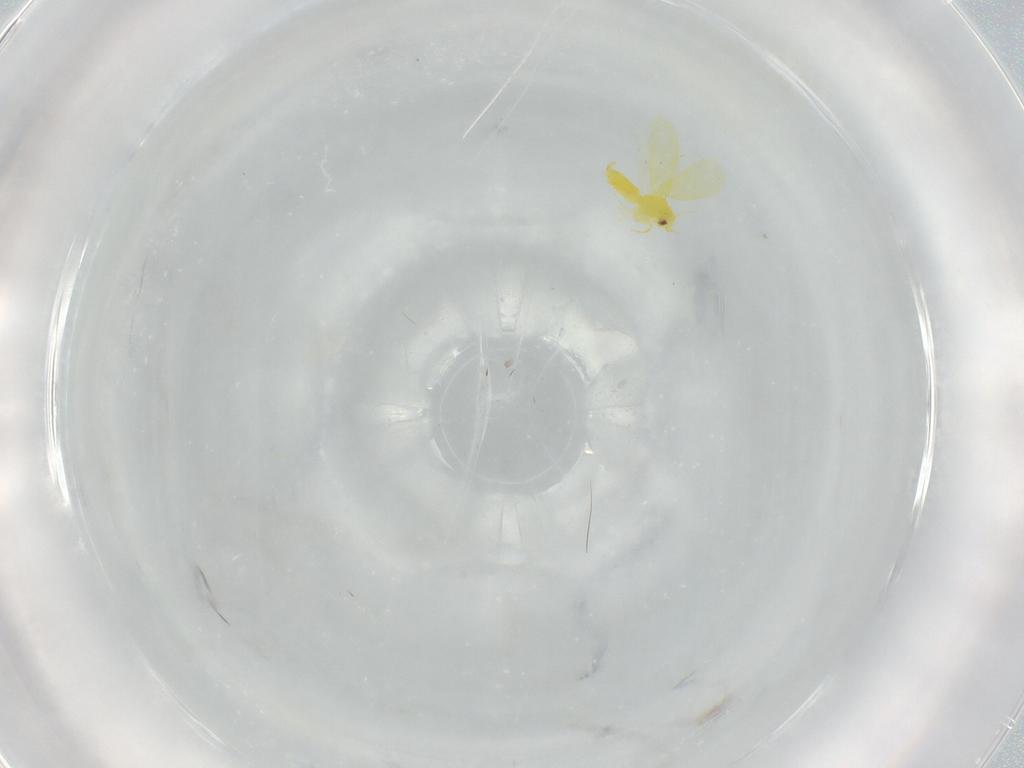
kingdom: Animalia
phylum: Arthropoda
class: Insecta
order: Hemiptera
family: Aleyrodidae
